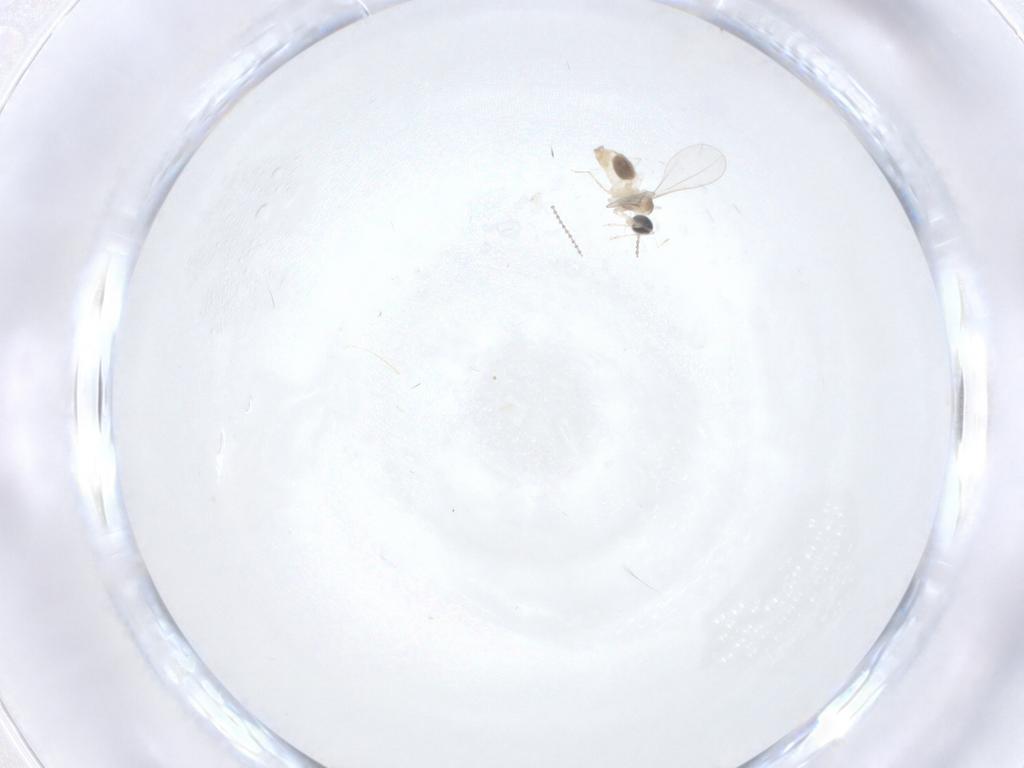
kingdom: Animalia
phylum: Arthropoda
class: Insecta
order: Diptera
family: Cecidomyiidae
